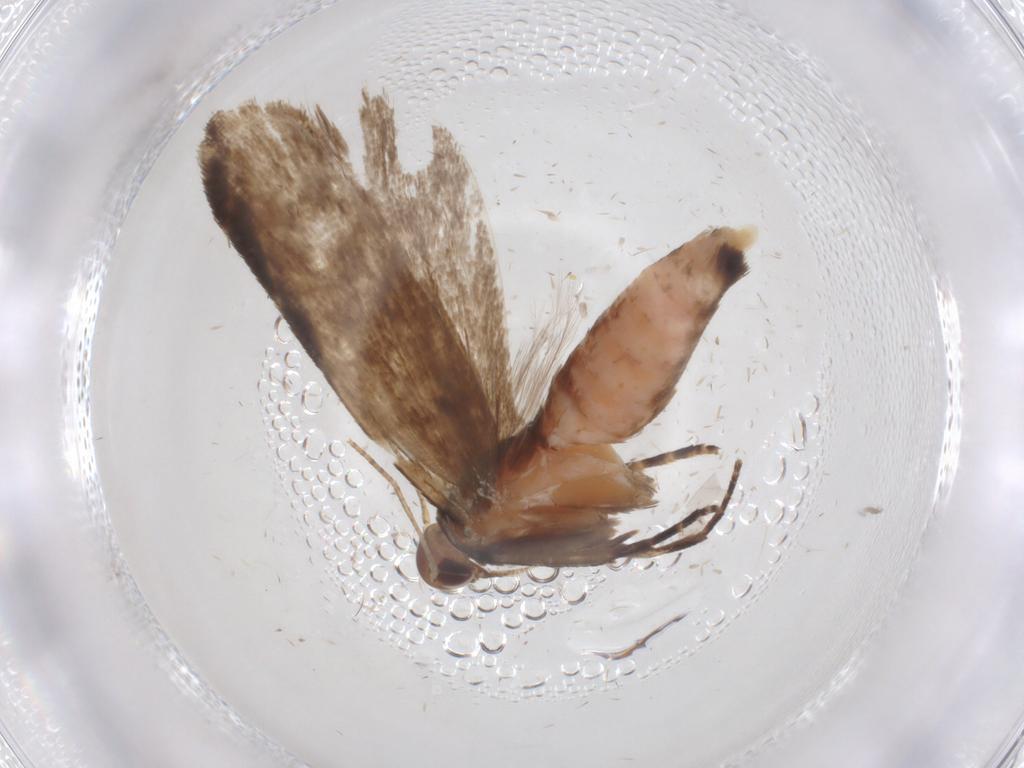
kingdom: Animalia
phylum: Arthropoda
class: Insecta
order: Lepidoptera
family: Gelechiidae
